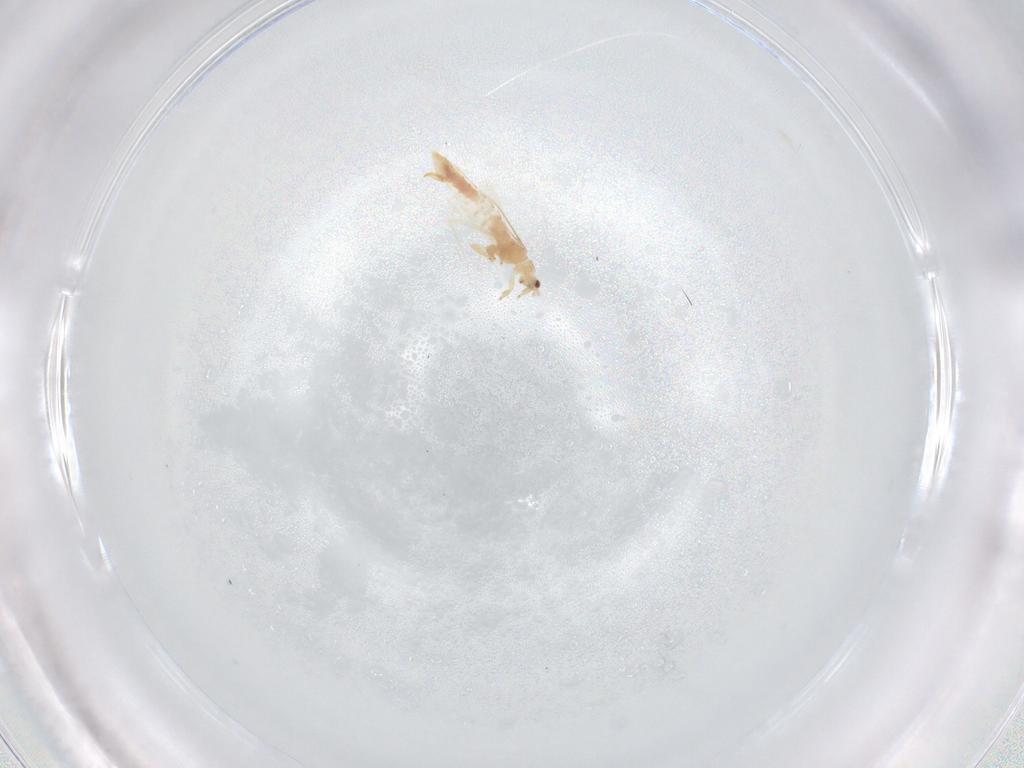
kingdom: Animalia
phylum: Arthropoda
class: Insecta
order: Thysanoptera
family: Thripidae
